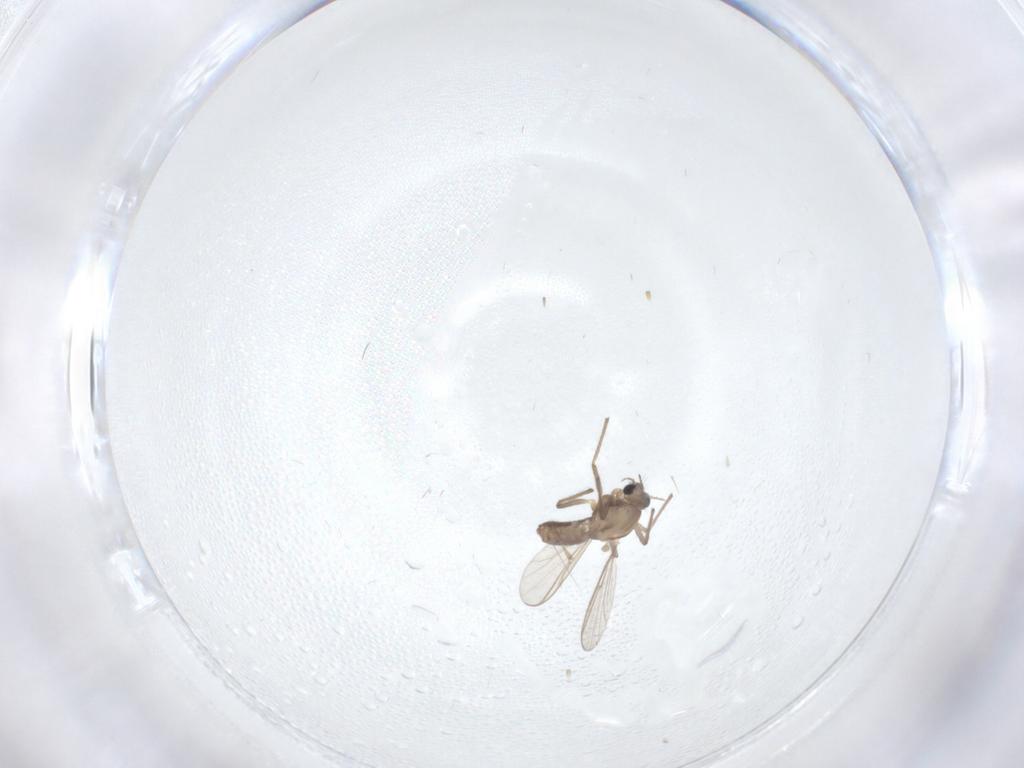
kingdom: Animalia
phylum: Arthropoda
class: Insecta
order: Diptera
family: Chironomidae
